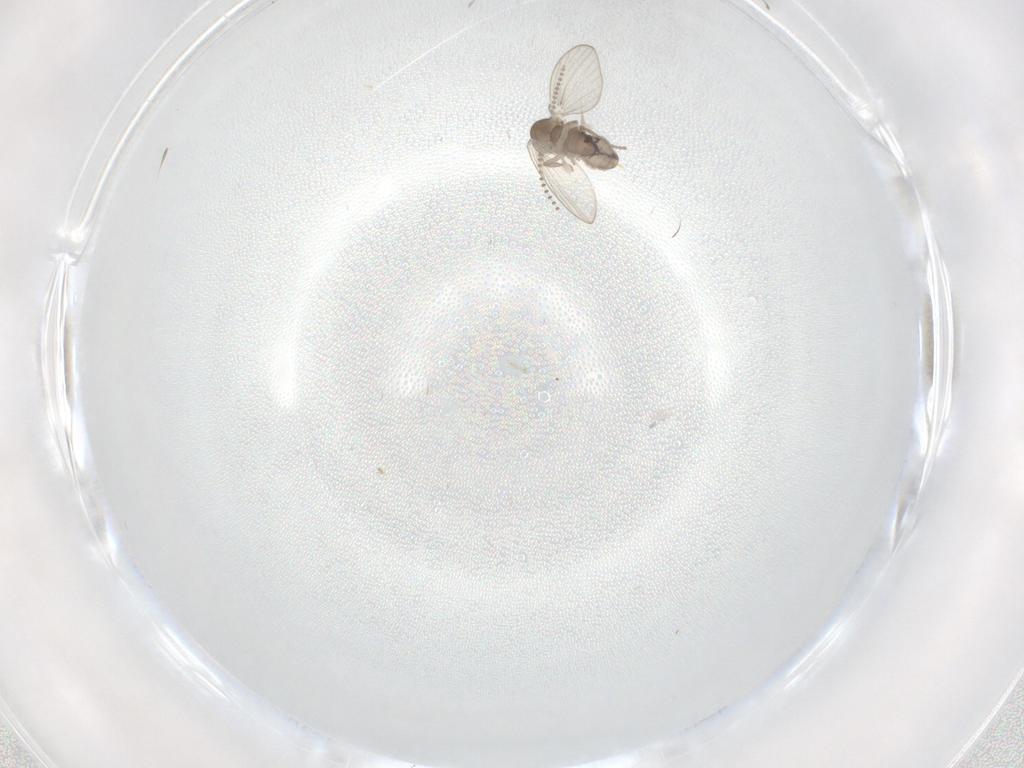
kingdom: Animalia
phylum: Arthropoda
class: Insecta
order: Diptera
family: Psychodidae
